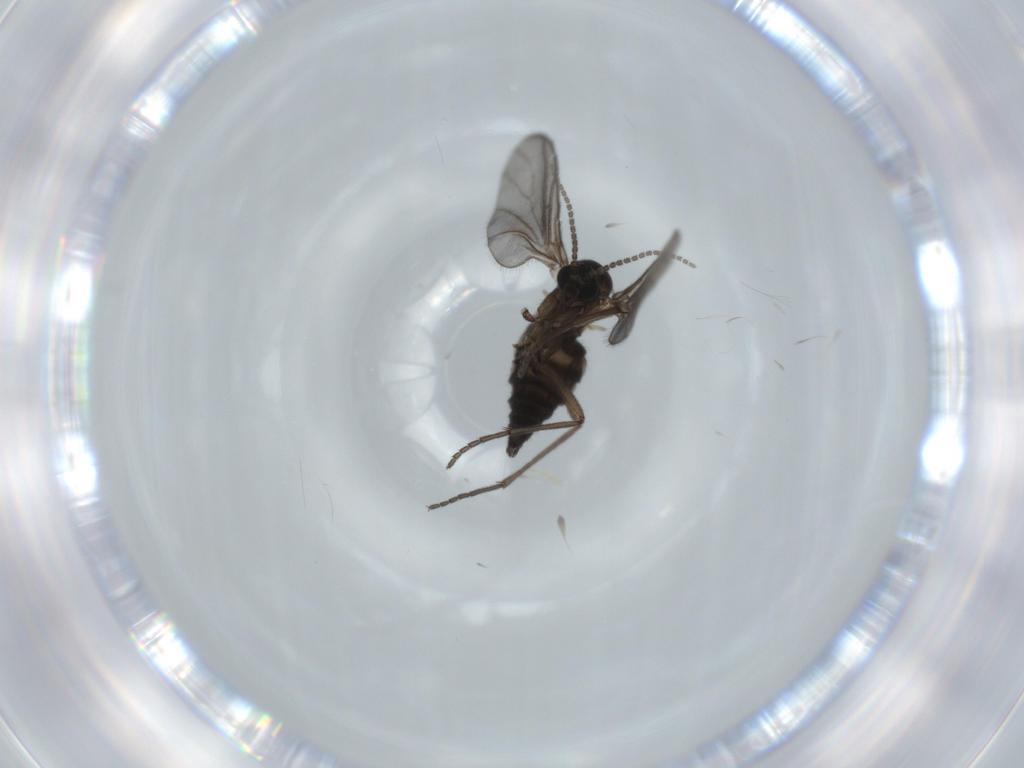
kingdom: Animalia
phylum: Arthropoda
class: Insecta
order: Diptera
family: Sciaridae
